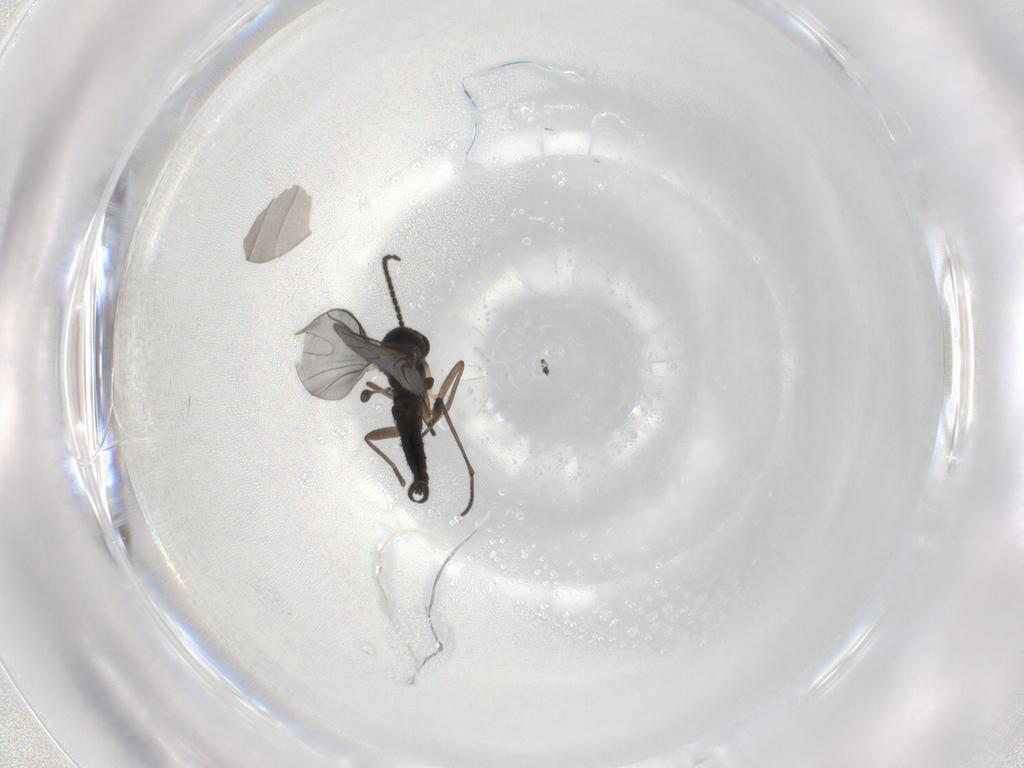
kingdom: Animalia
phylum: Arthropoda
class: Insecta
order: Diptera
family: Sciaridae
